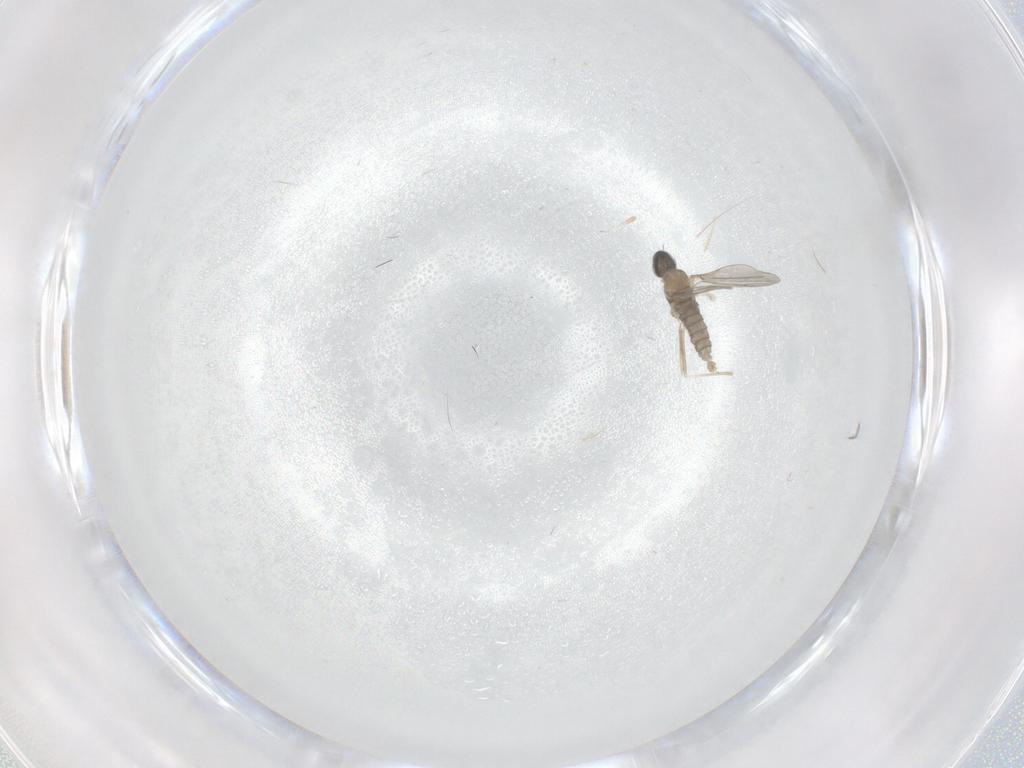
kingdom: Animalia
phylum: Arthropoda
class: Insecta
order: Diptera
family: Cecidomyiidae
